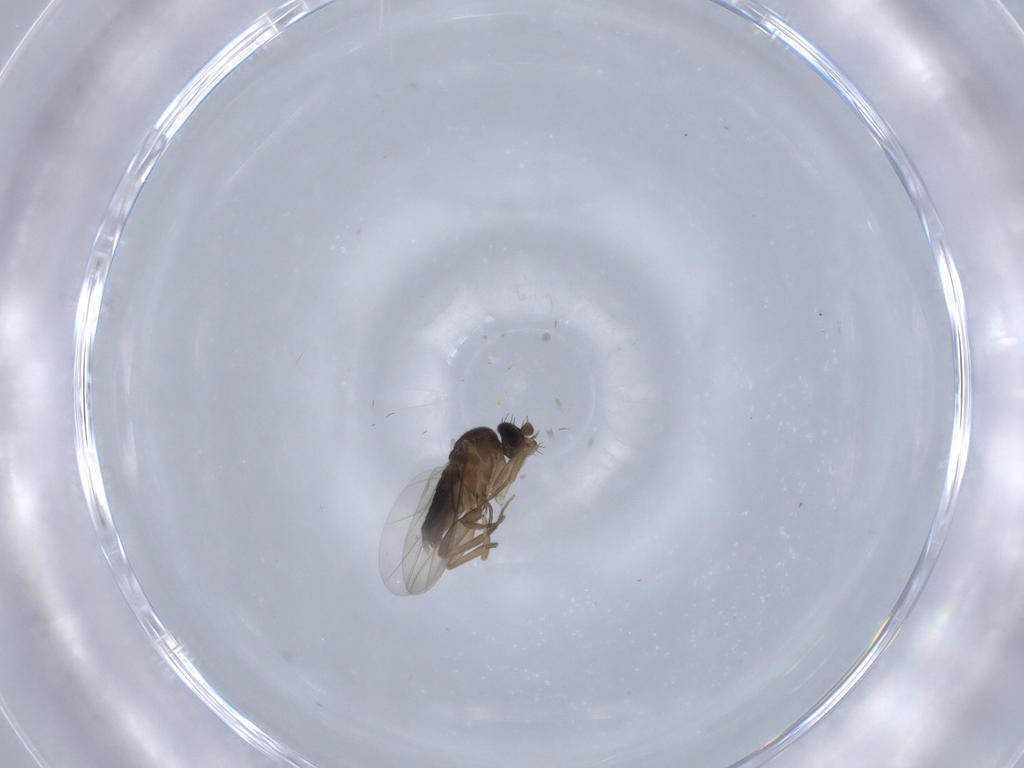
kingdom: Animalia
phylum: Arthropoda
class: Insecta
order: Diptera
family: Phoridae
